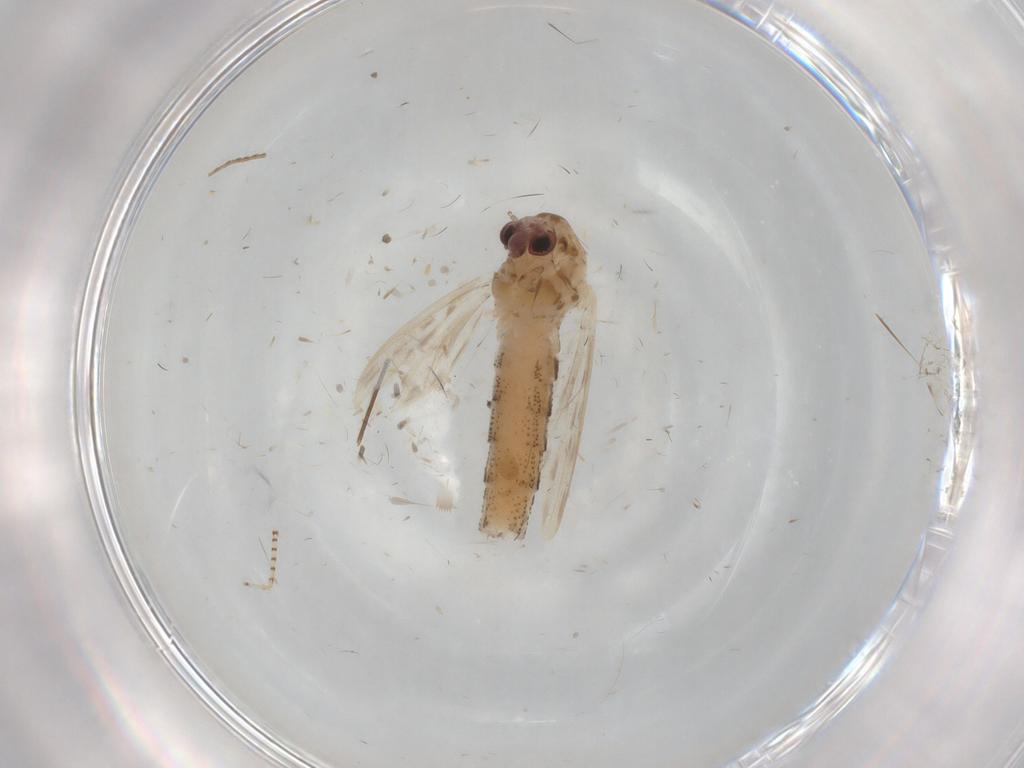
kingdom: Animalia
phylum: Arthropoda
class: Insecta
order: Diptera
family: Chaoboridae
